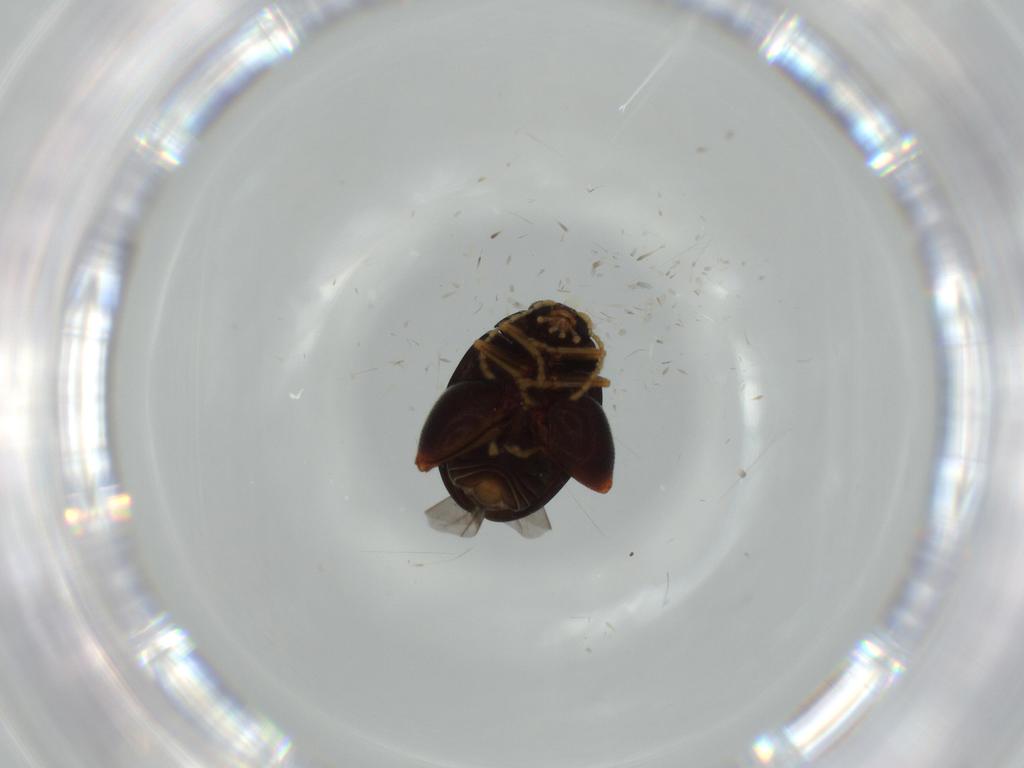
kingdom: Animalia
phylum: Arthropoda
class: Insecta
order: Coleoptera
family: Chrysomelidae
